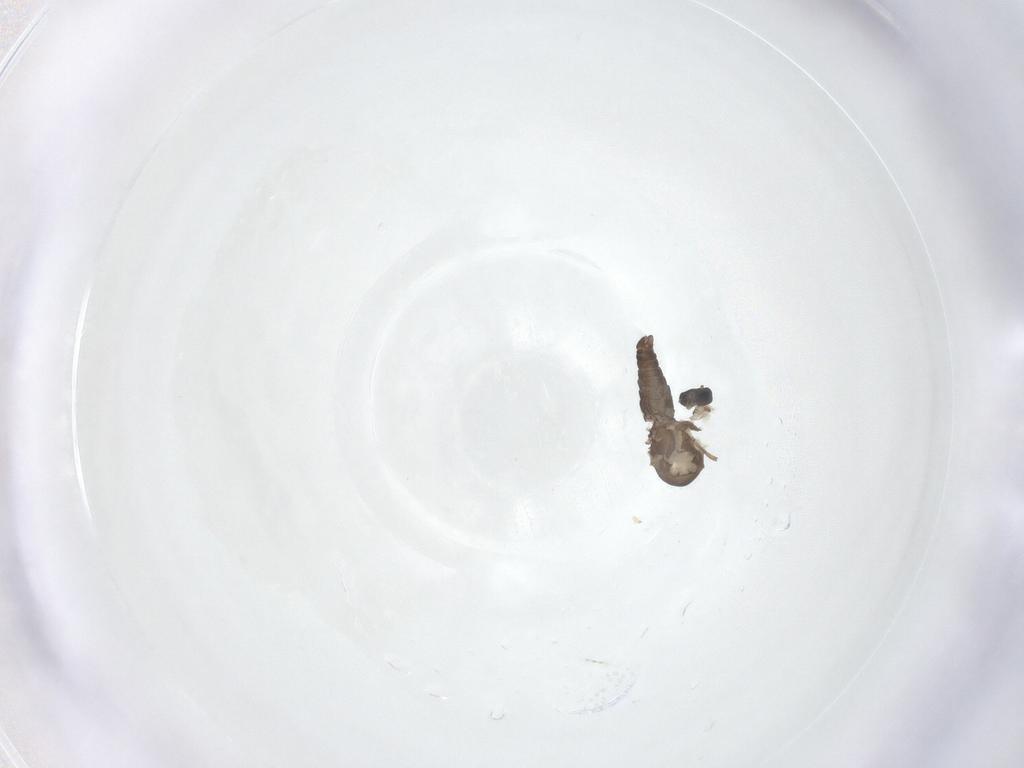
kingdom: Animalia
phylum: Arthropoda
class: Insecta
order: Diptera
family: Ceratopogonidae
